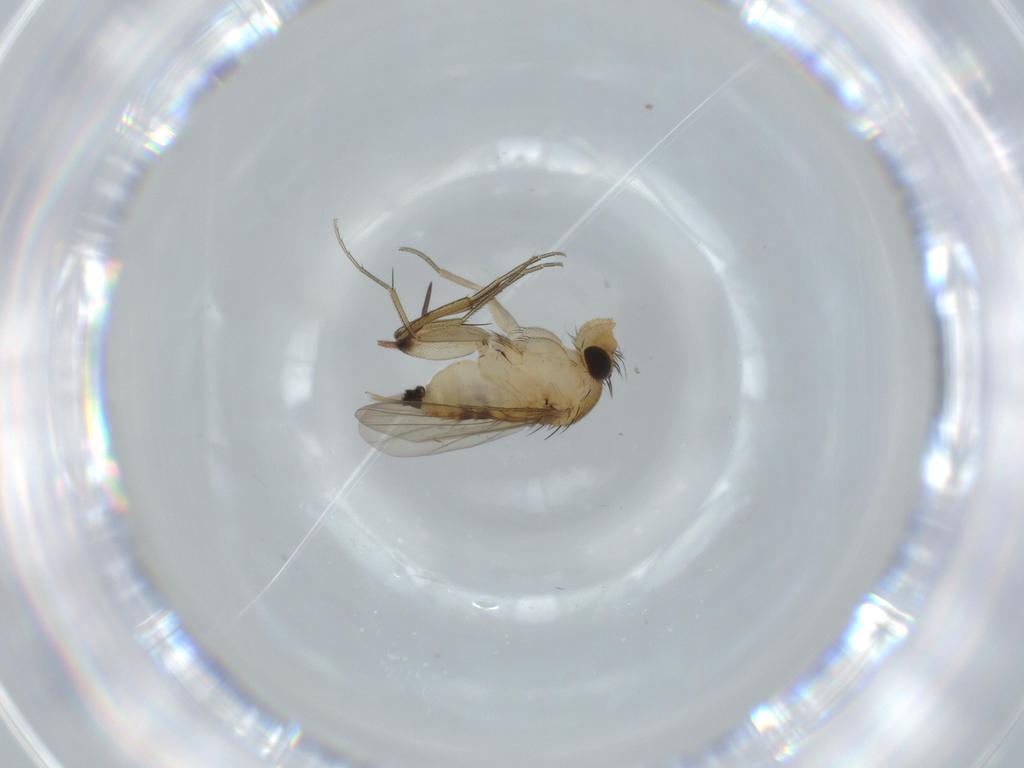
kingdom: Animalia
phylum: Arthropoda
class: Insecta
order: Diptera
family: Phoridae
